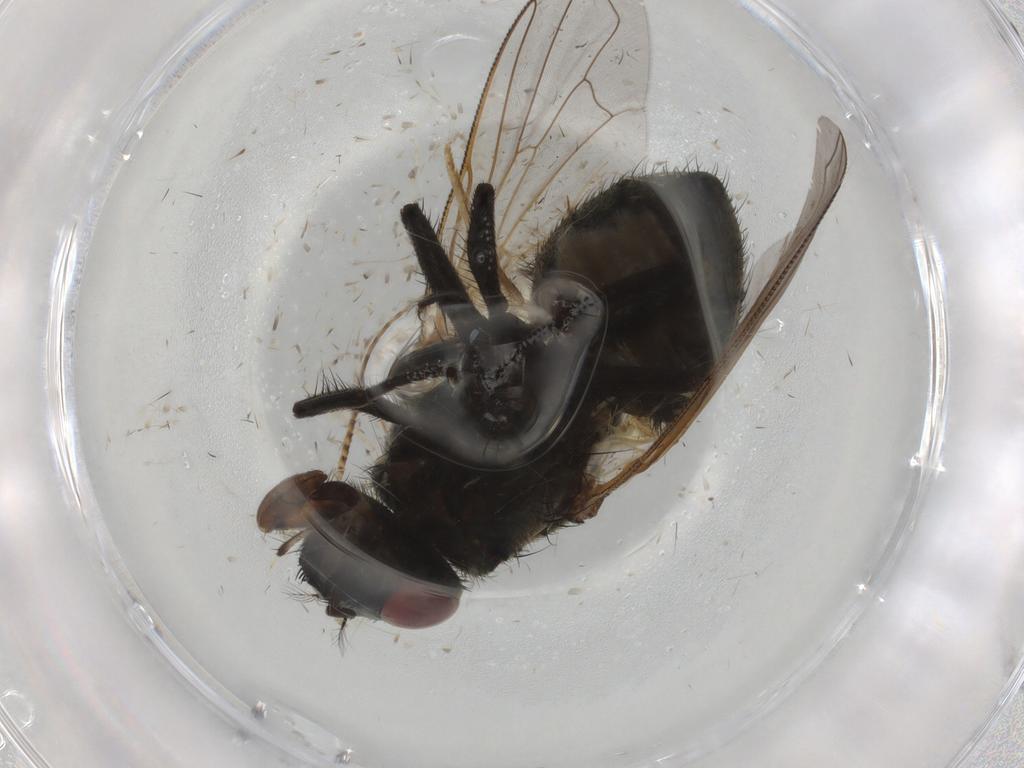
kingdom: Animalia
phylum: Arthropoda
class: Insecta
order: Diptera
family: Muscidae
